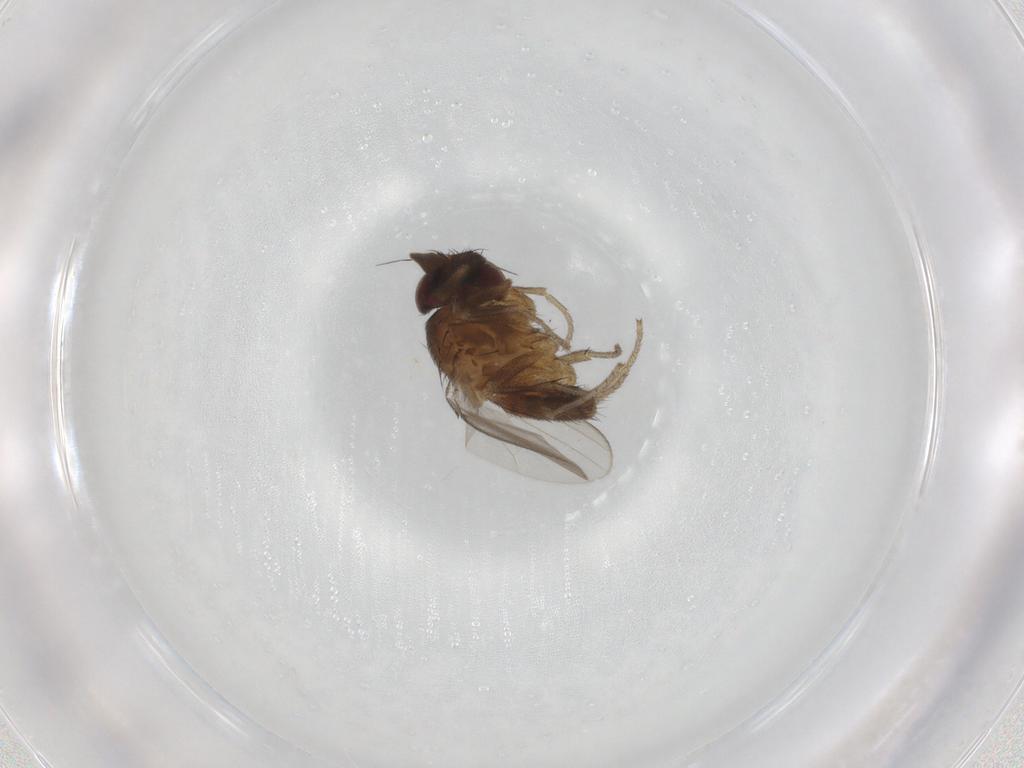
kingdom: Animalia
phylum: Arthropoda
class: Insecta
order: Diptera
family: Milichiidae
